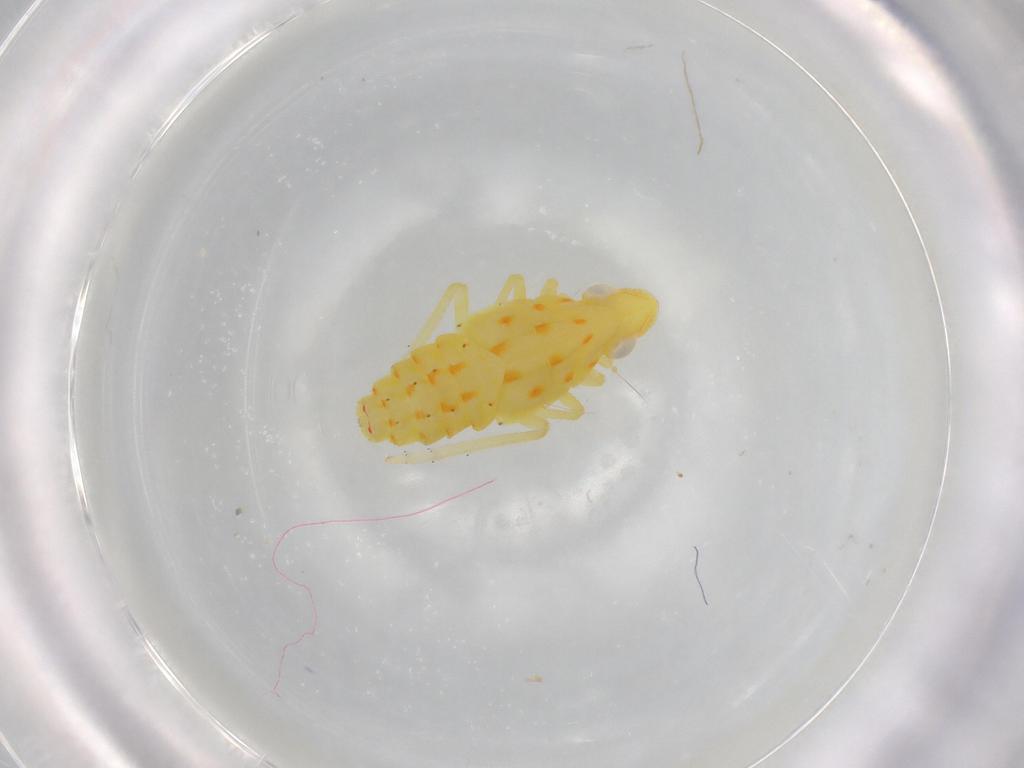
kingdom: Animalia
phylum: Arthropoda
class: Insecta
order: Hemiptera
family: Tropiduchidae
